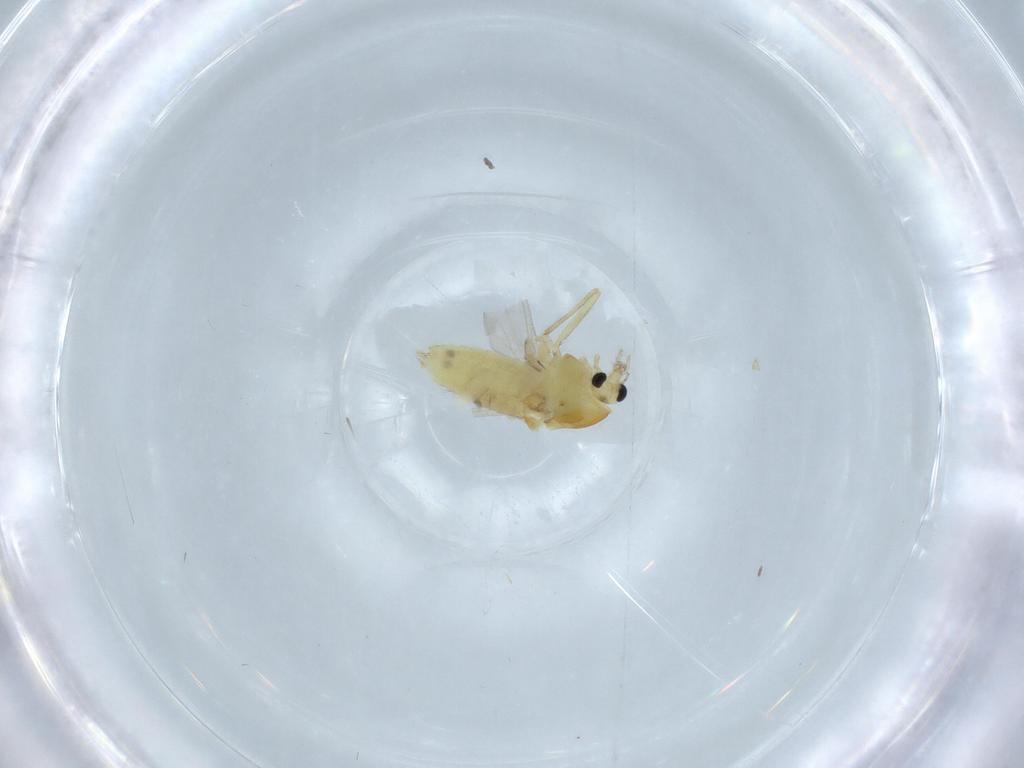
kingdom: Animalia
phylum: Arthropoda
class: Insecta
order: Diptera
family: Chironomidae
